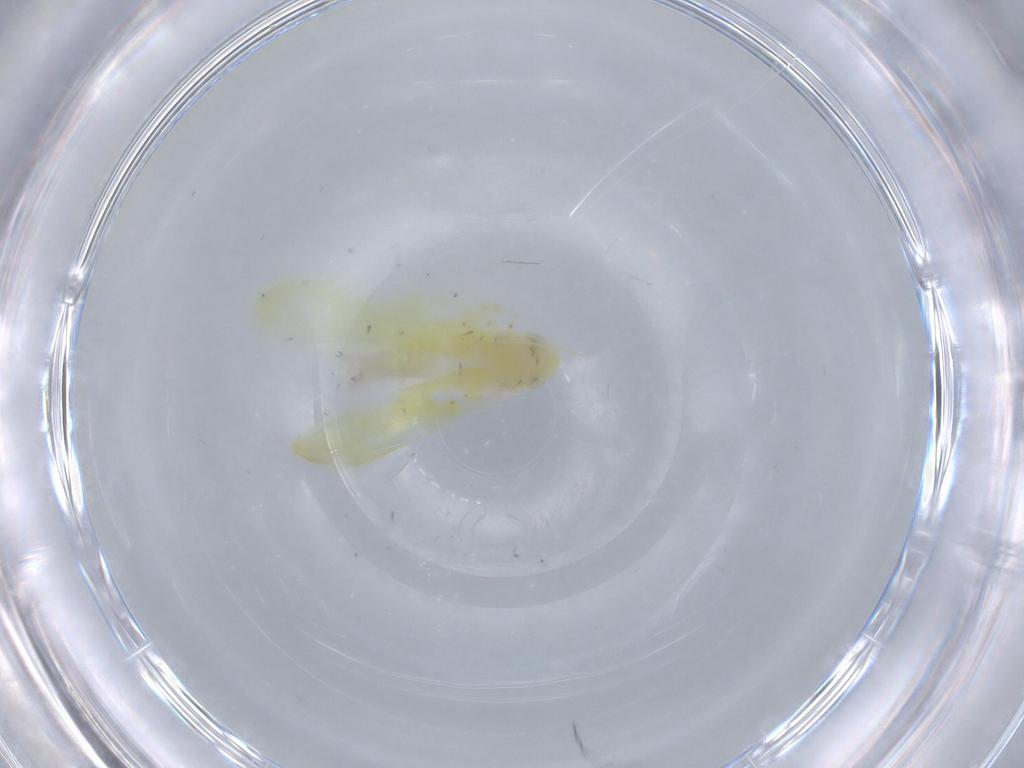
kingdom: Animalia
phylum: Arthropoda
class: Insecta
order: Hemiptera
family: Cicadellidae
